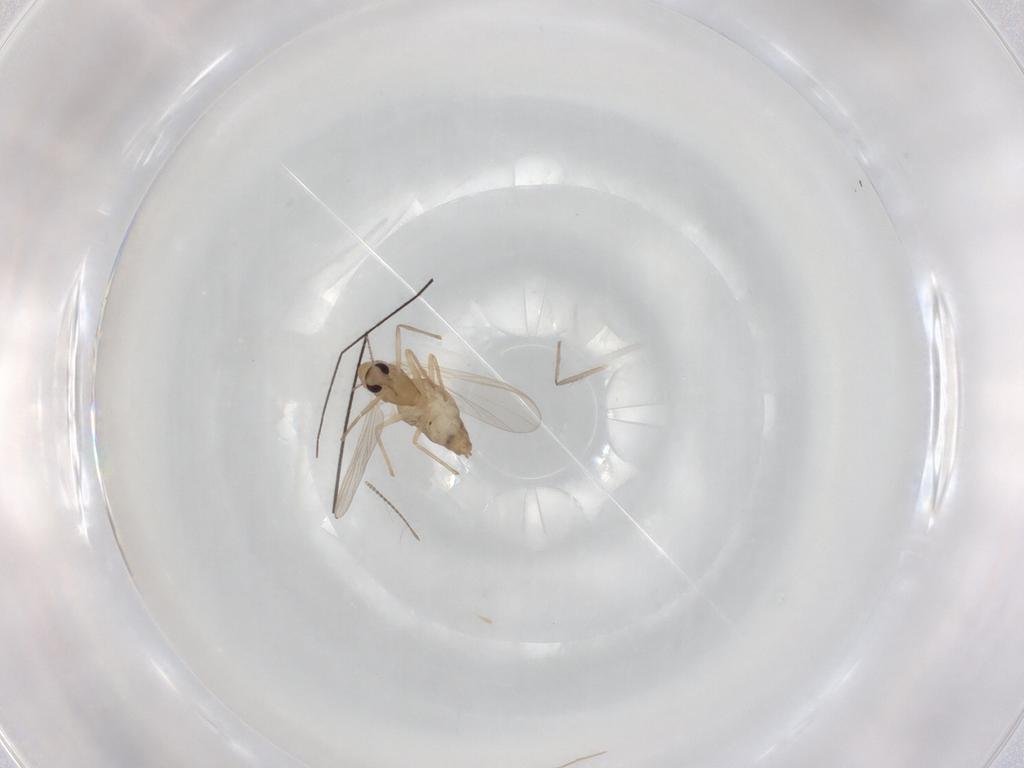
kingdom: Animalia
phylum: Arthropoda
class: Insecta
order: Diptera
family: Chironomidae
